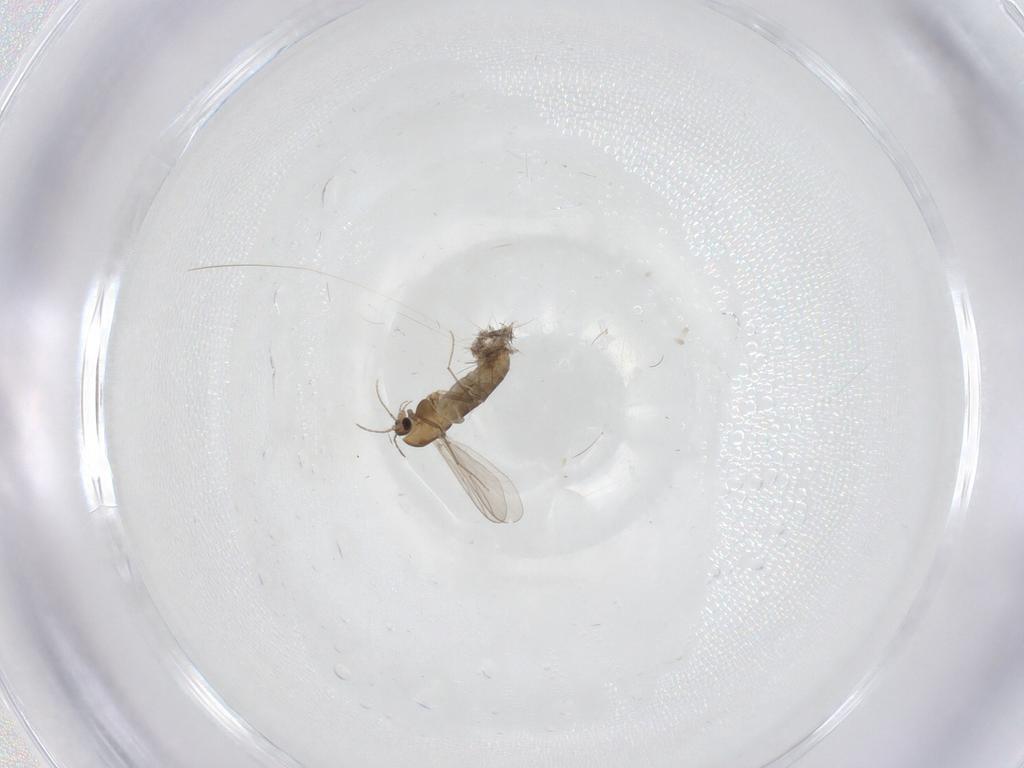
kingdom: Animalia
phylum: Arthropoda
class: Insecta
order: Diptera
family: Chironomidae
